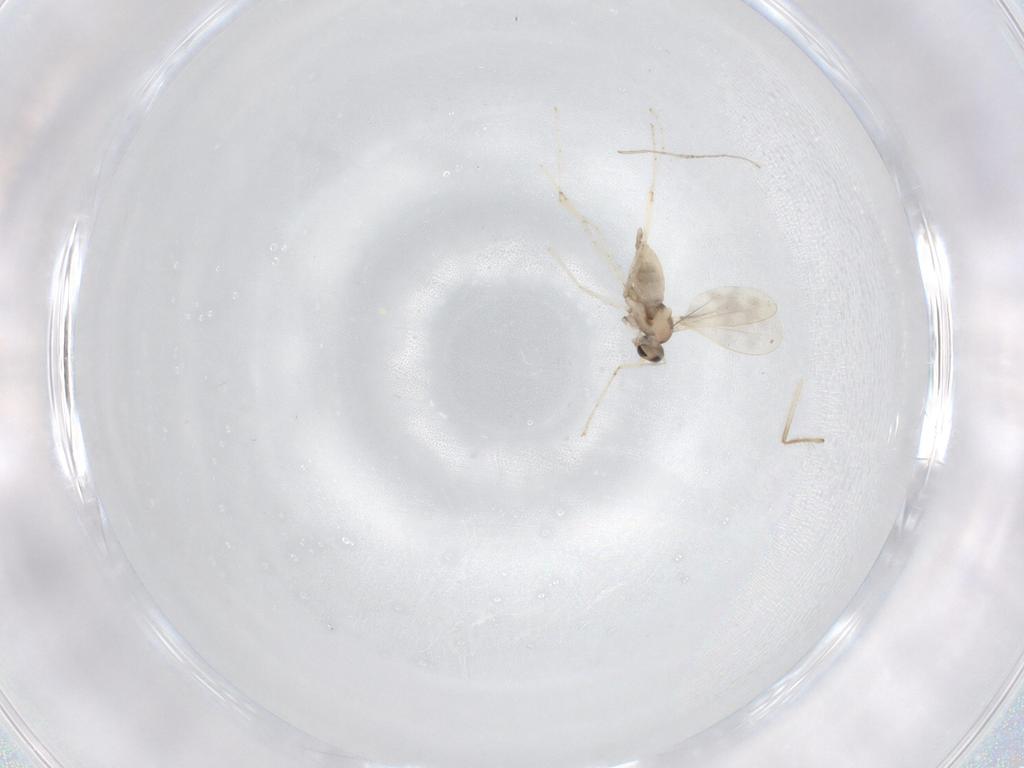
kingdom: Animalia
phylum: Arthropoda
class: Insecta
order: Diptera
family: Cecidomyiidae
